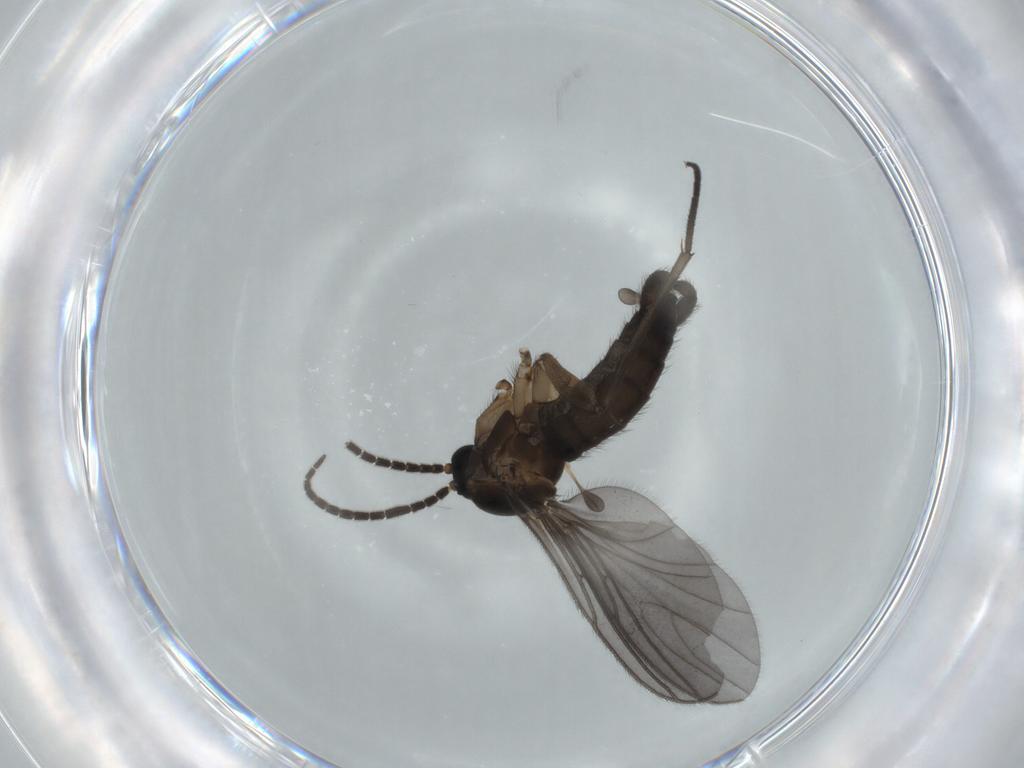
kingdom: Animalia
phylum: Arthropoda
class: Insecta
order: Diptera
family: Sciaridae
